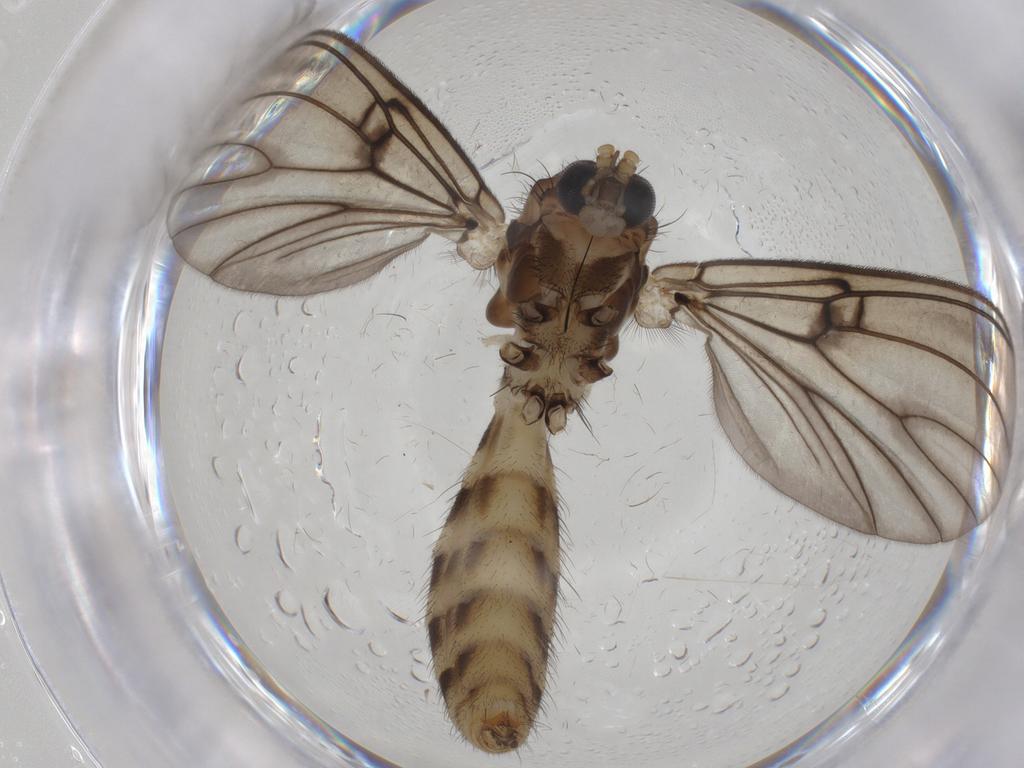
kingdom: Animalia
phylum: Arthropoda
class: Insecta
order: Diptera
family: Mycetophilidae
